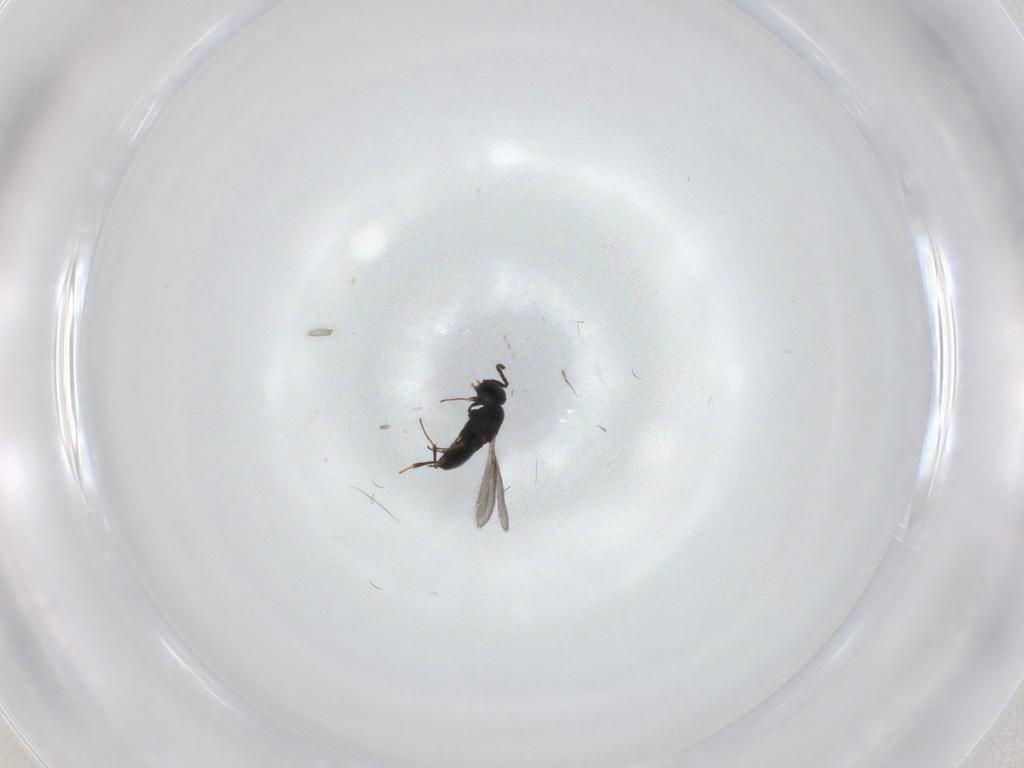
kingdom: Animalia
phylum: Arthropoda
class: Insecta
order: Hymenoptera
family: Scelionidae
